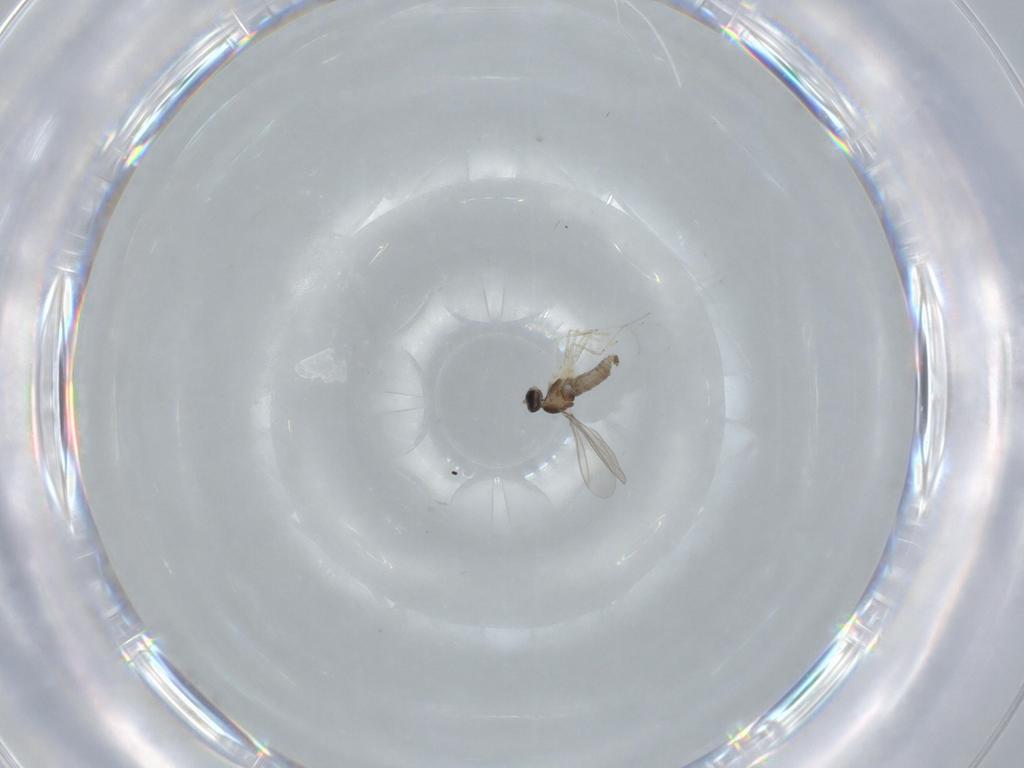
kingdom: Animalia
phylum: Arthropoda
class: Insecta
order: Diptera
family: Cecidomyiidae
